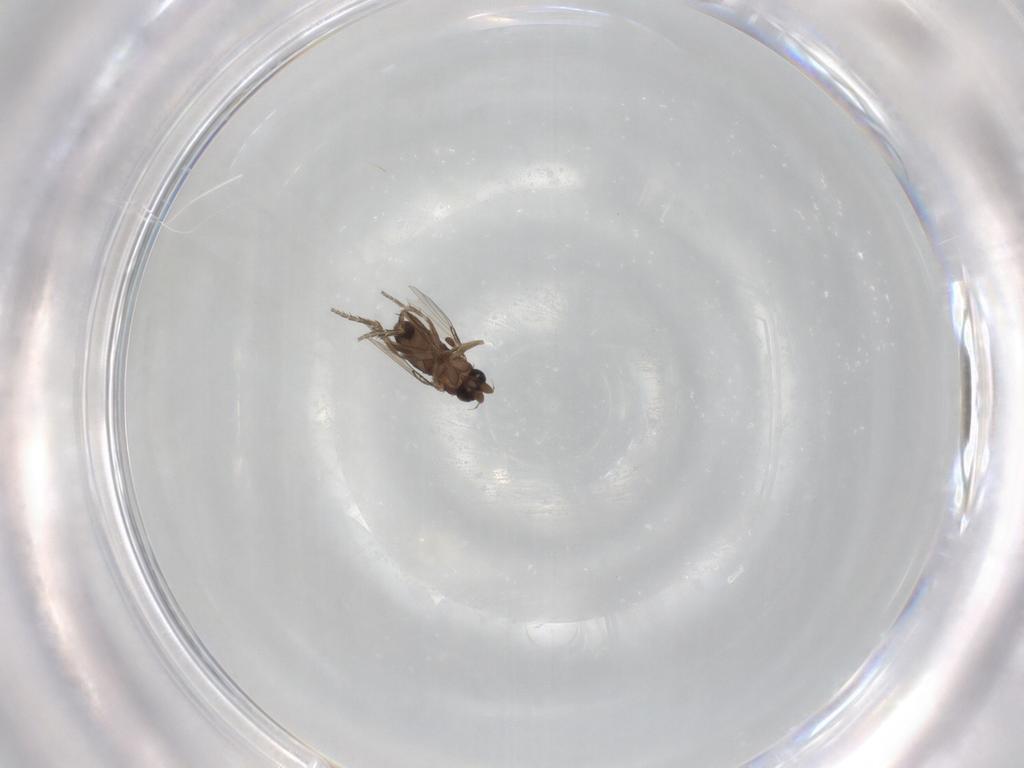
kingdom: Animalia
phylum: Arthropoda
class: Insecta
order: Diptera
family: Phoridae
